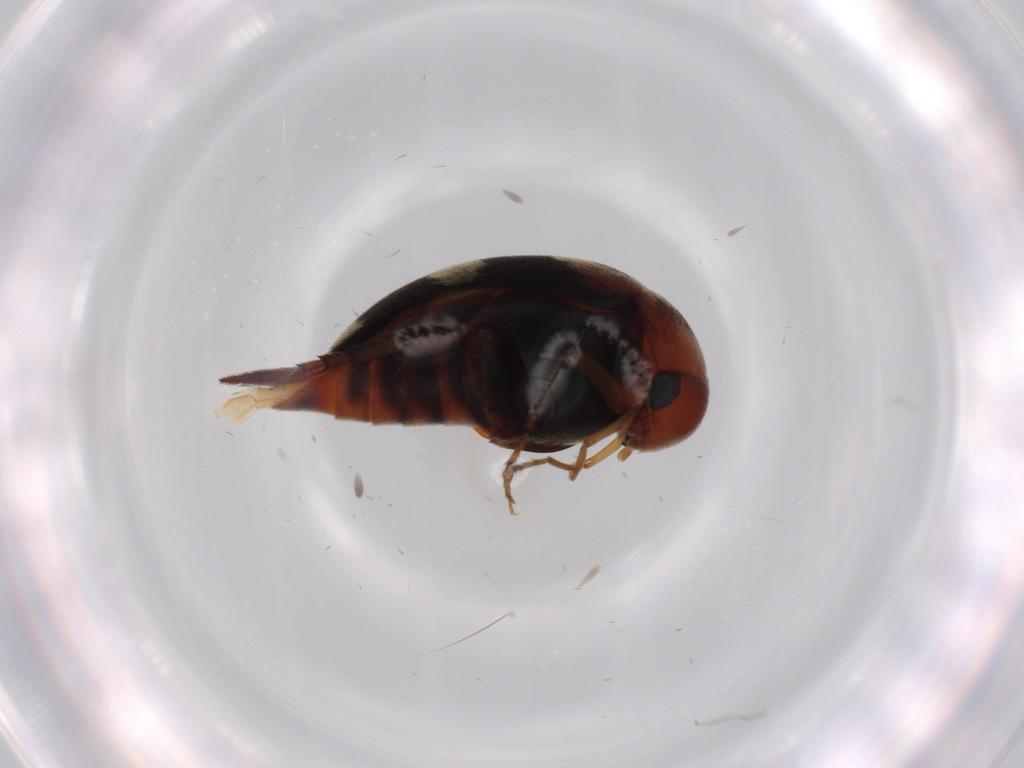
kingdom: Animalia
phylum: Arthropoda
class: Insecta
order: Coleoptera
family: Mordellidae
